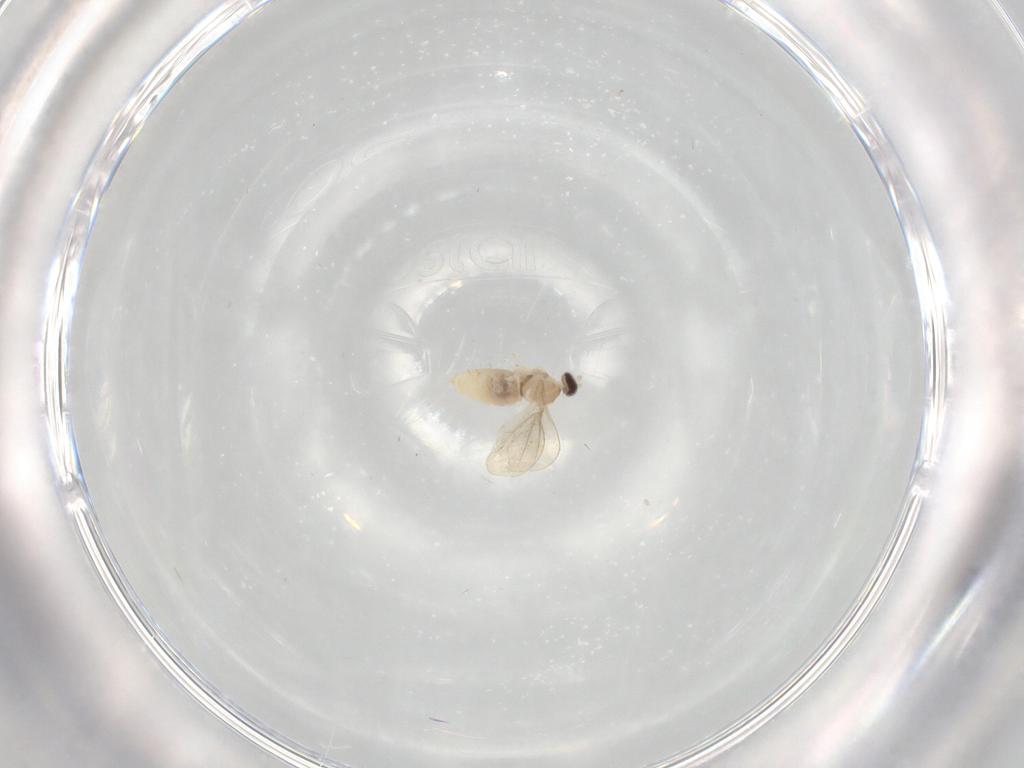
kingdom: Animalia
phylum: Arthropoda
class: Insecta
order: Diptera
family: Cecidomyiidae
